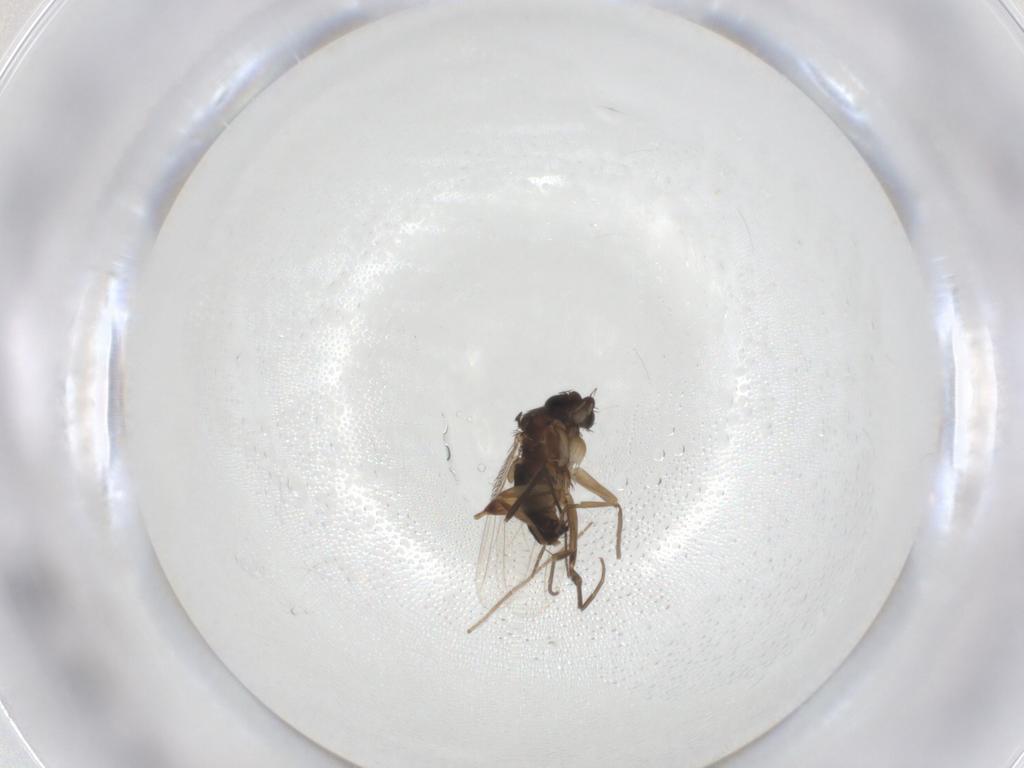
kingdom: Animalia
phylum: Arthropoda
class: Insecta
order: Diptera
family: Phoridae
